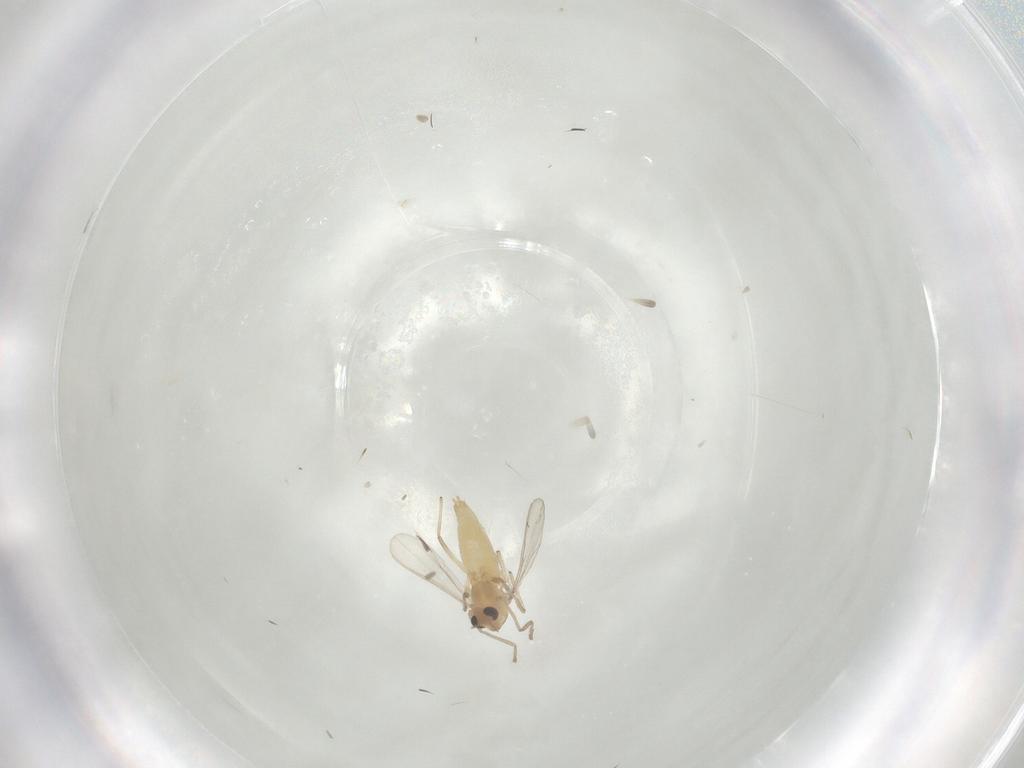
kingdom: Animalia
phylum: Arthropoda
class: Insecta
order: Diptera
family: Chironomidae
